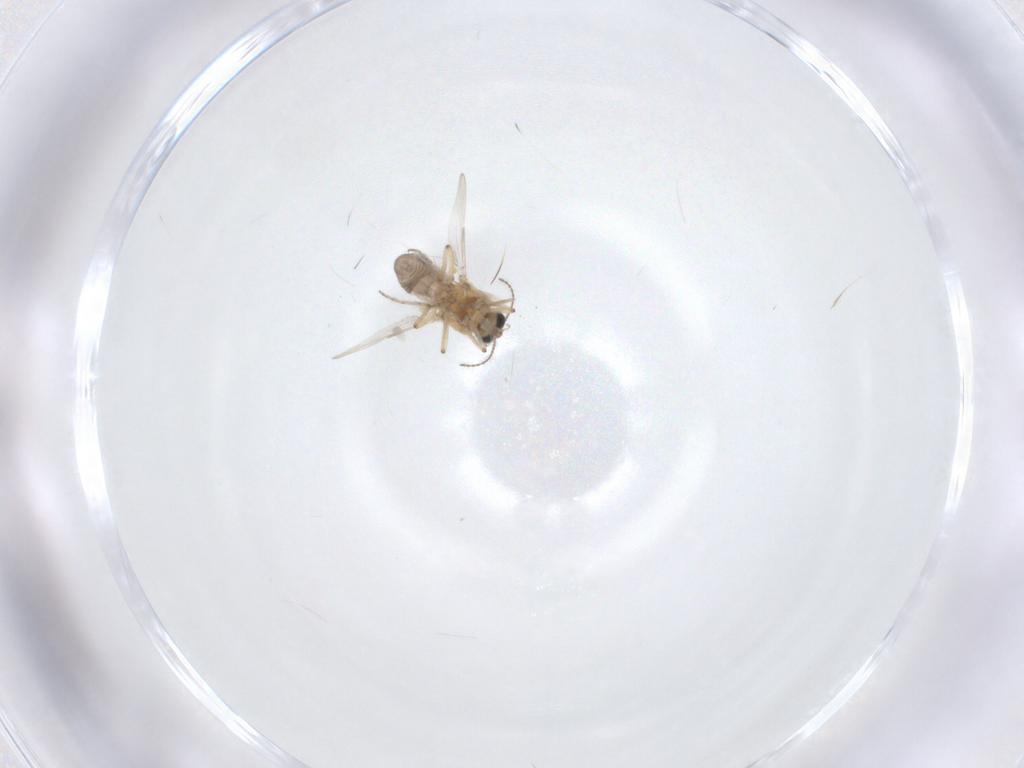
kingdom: Animalia
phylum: Arthropoda
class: Insecta
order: Diptera
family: Ceratopogonidae
